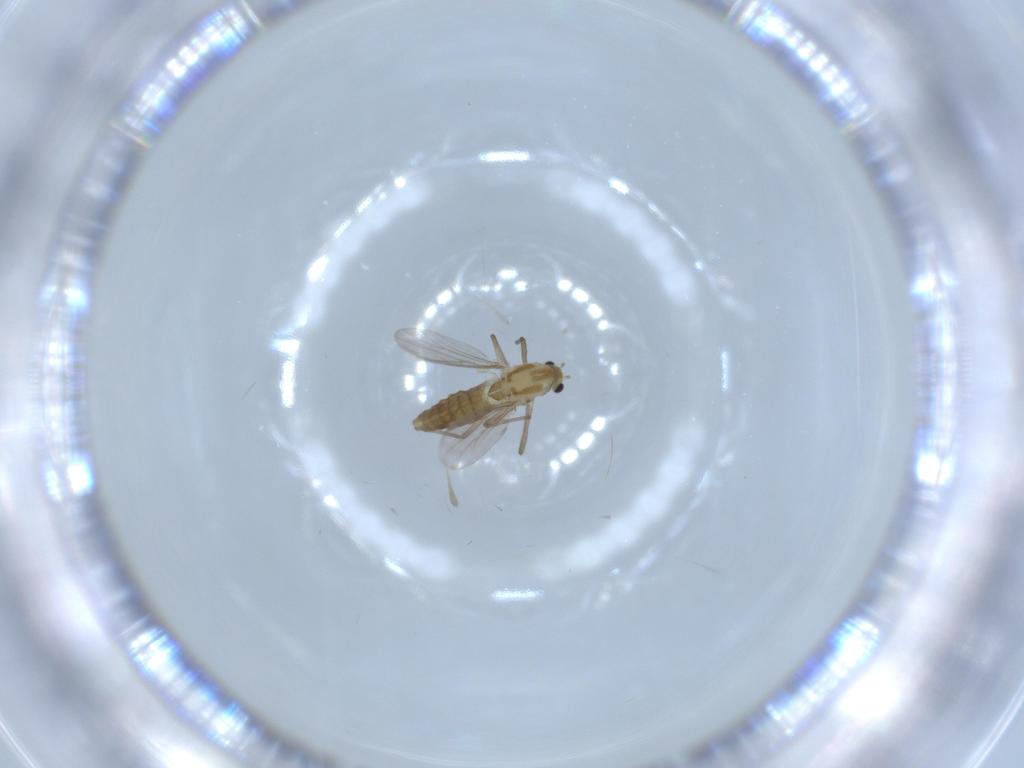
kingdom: Animalia
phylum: Arthropoda
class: Insecta
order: Diptera
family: Chironomidae
